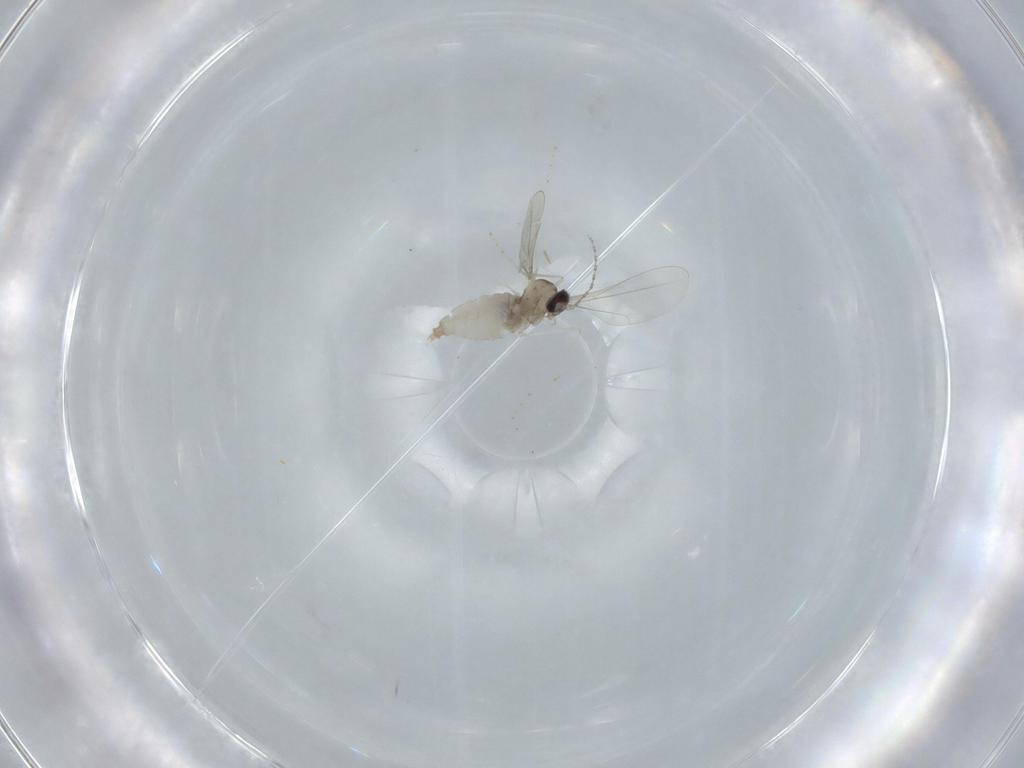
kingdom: Animalia
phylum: Arthropoda
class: Insecta
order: Diptera
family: Cecidomyiidae
